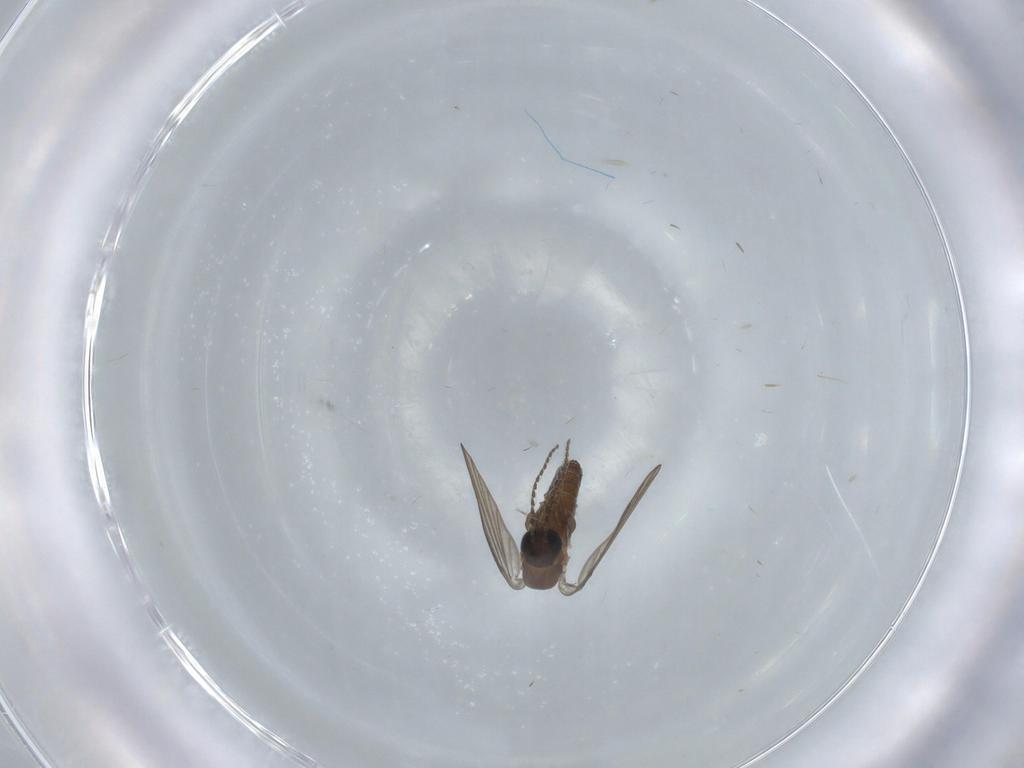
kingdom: Animalia
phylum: Arthropoda
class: Insecta
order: Diptera
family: Psychodidae
